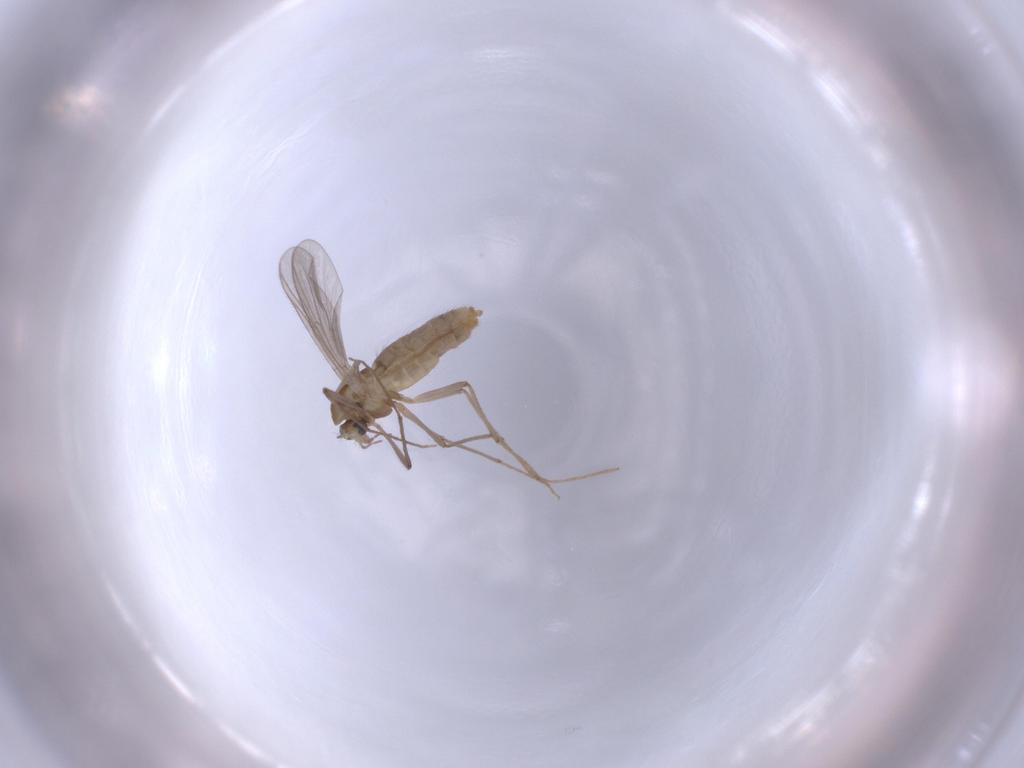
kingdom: Animalia
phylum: Arthropoda
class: Insecta
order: Diptera
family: Chironomidae
